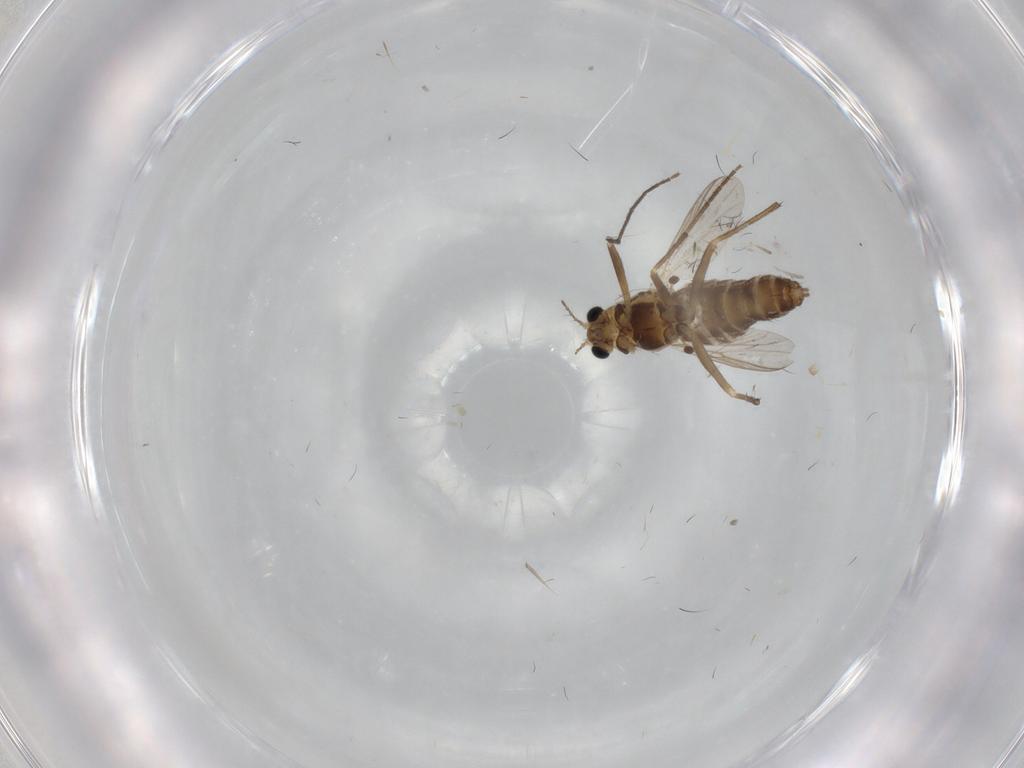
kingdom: Animalia
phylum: Arthropoda
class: Insecta
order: Diptera
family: Chironomidae
